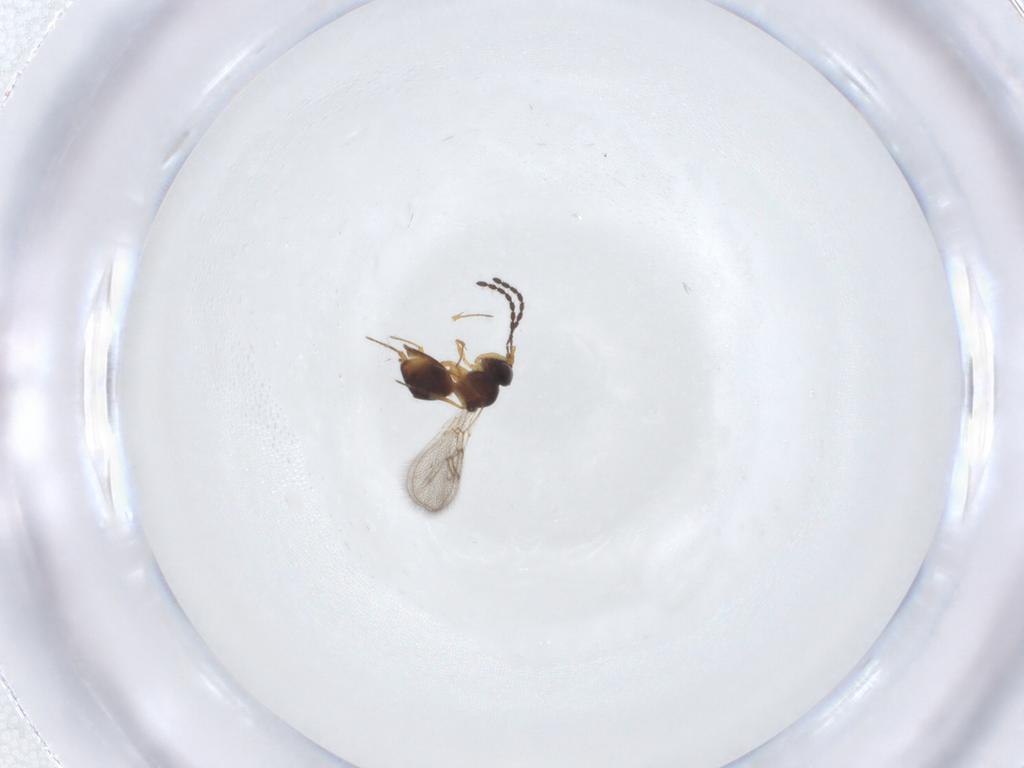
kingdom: Animalia
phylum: Arthropoda
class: Insecta
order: Hymenoptera
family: Figitidae
